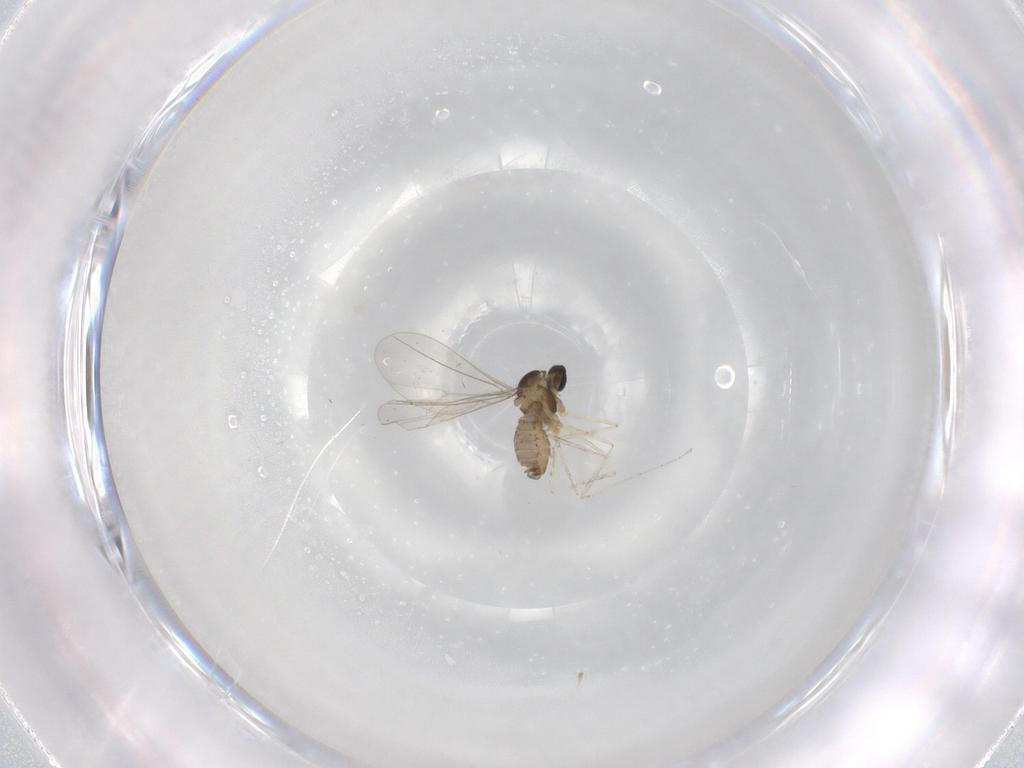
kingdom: Animalia
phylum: Arthropoda
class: Insecta
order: Diptera
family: Cecidomyiidae
